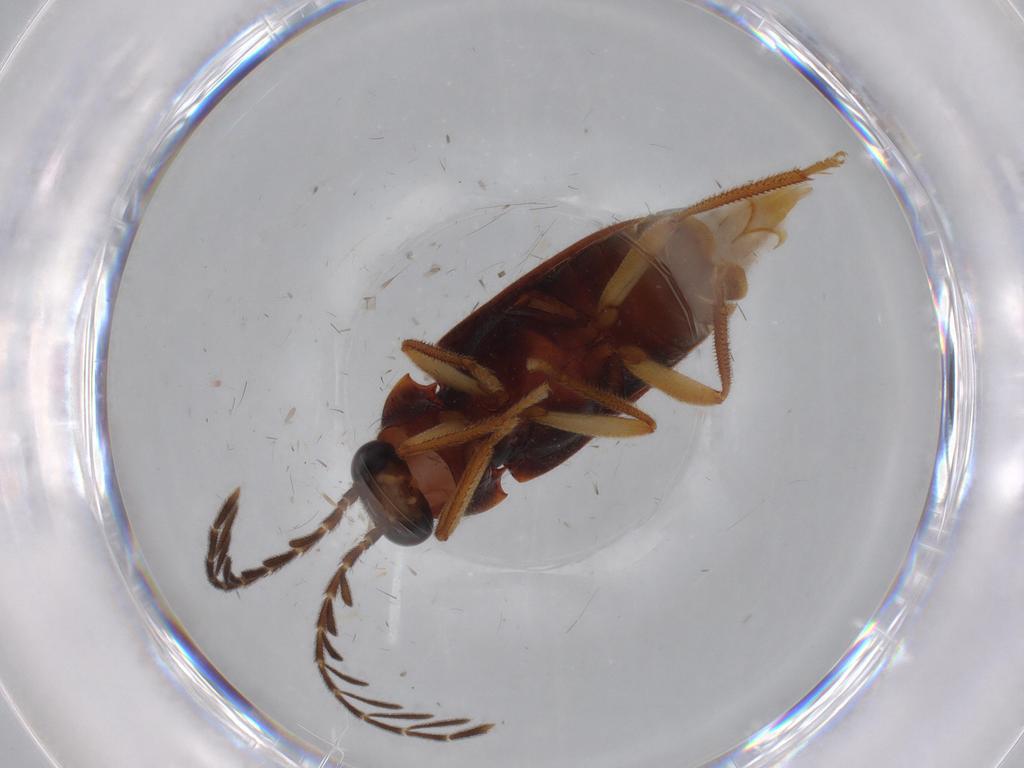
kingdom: Animalia
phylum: Arthropoda
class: Insecta
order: Coleoptera
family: Ptilodactylidae
